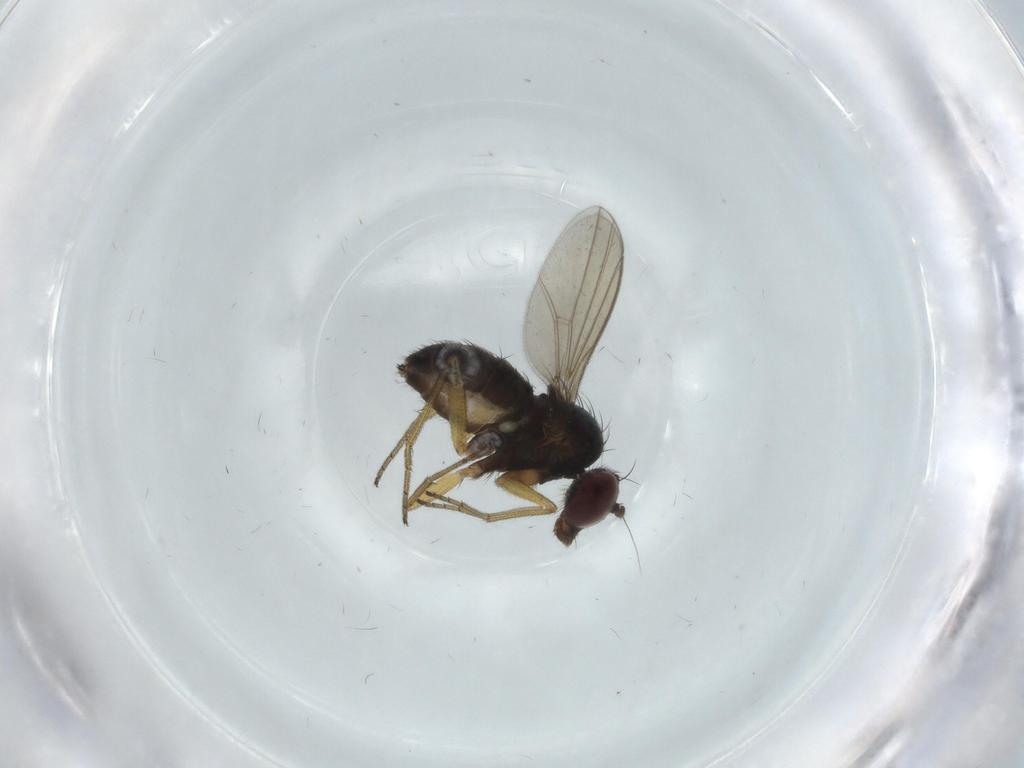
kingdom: Animalia
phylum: Arthropoda
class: Insecta
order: Diptera
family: Dolichopodidae
